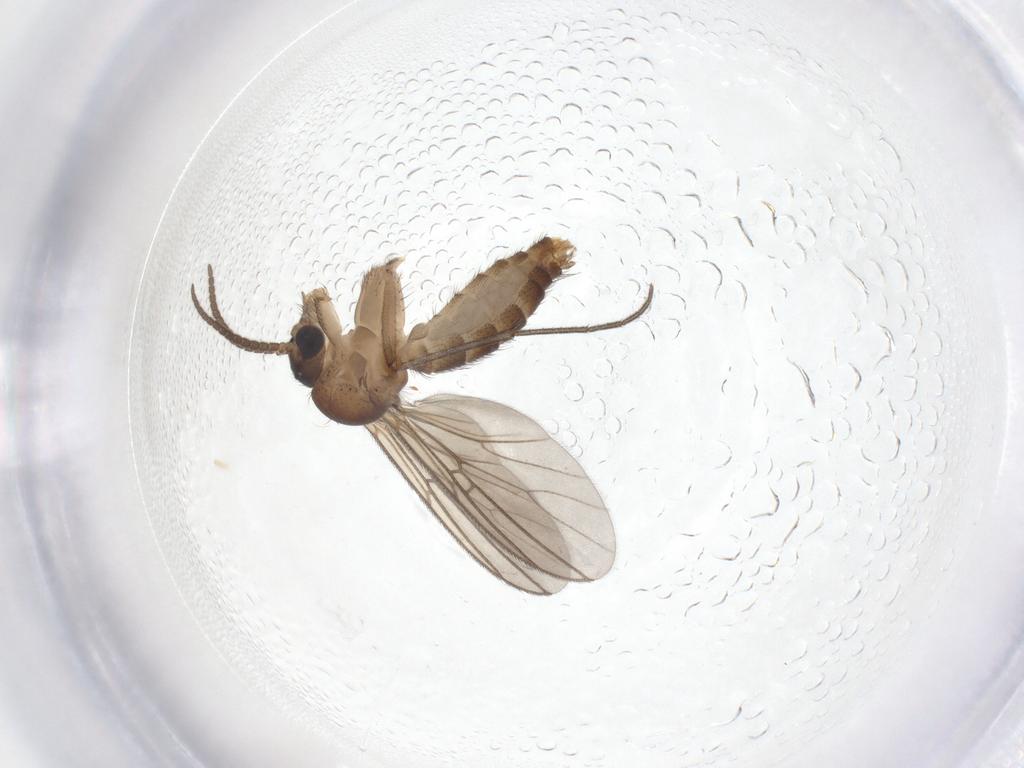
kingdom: Animalia
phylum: Arthropoda
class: Insecta
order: Diptera
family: Mycetophilidae
